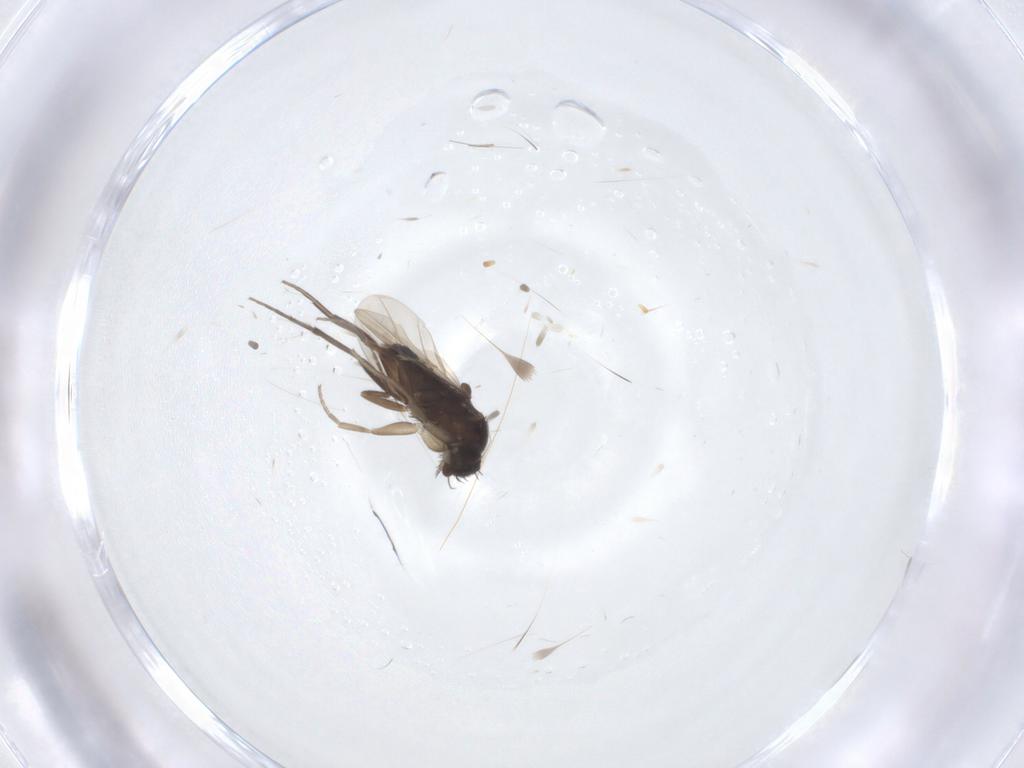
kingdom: Animalia
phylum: Arthropoda
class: Insecta
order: Diptera
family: Phoridae
